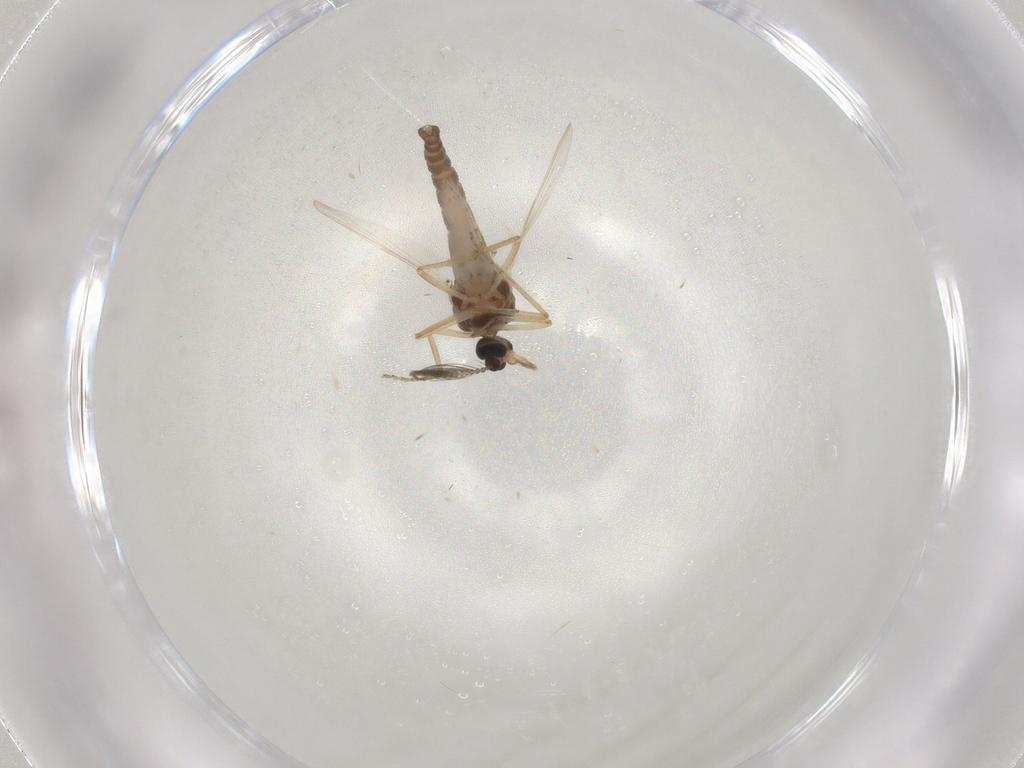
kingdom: Animalia
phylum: Arthropoda
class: Insecta
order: Diptera
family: Ceratopogonidae
